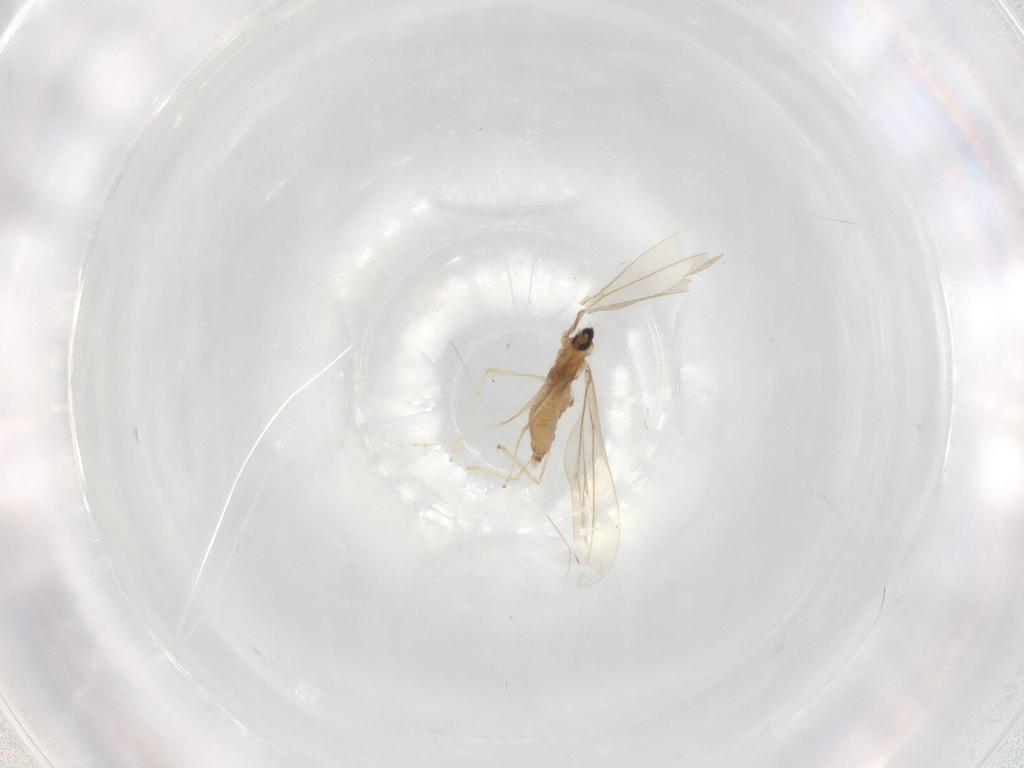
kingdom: Animalia
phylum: Arthropoda
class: Insecta
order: Diptera
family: Cecidomyiidae
